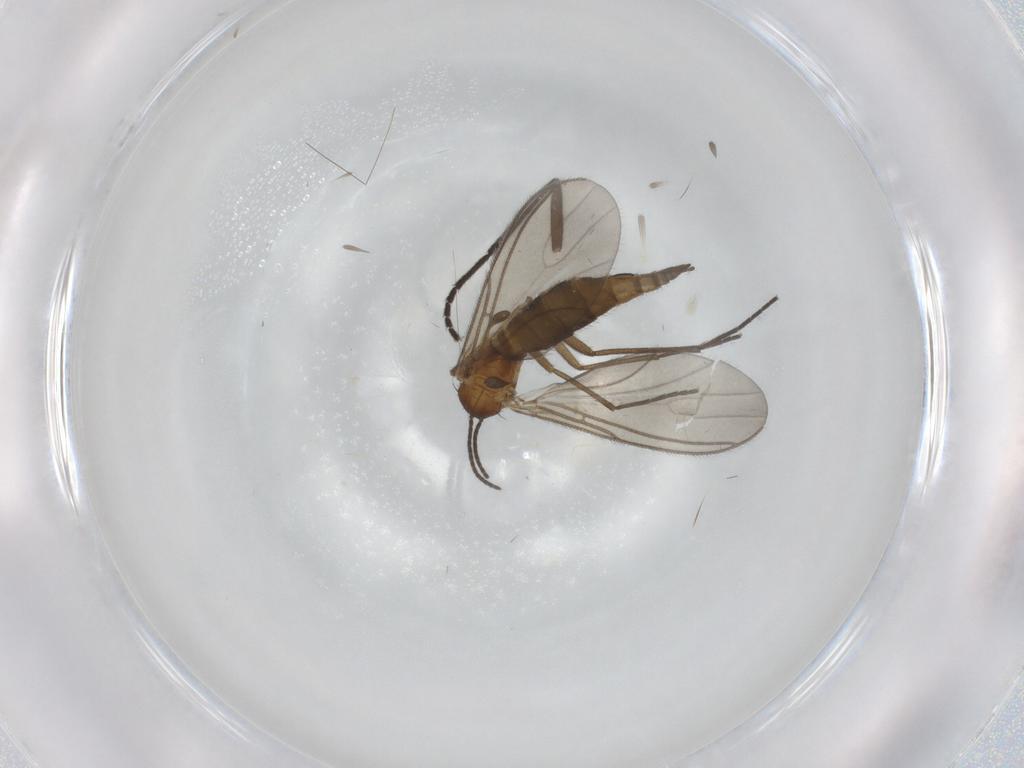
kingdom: Animalia
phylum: Arthropoda
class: Insecta
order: Diptera
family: Sciaridae
